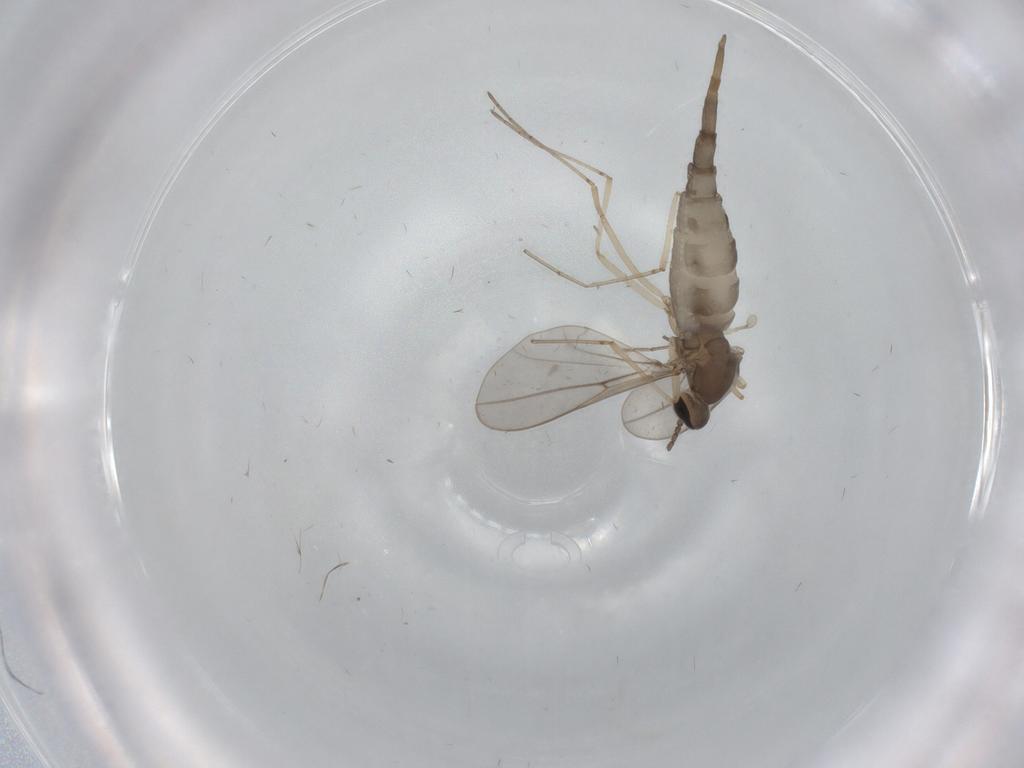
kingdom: Animalia
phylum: Arthropoda
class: Insecta
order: Diptera
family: Cecidomyiidae
